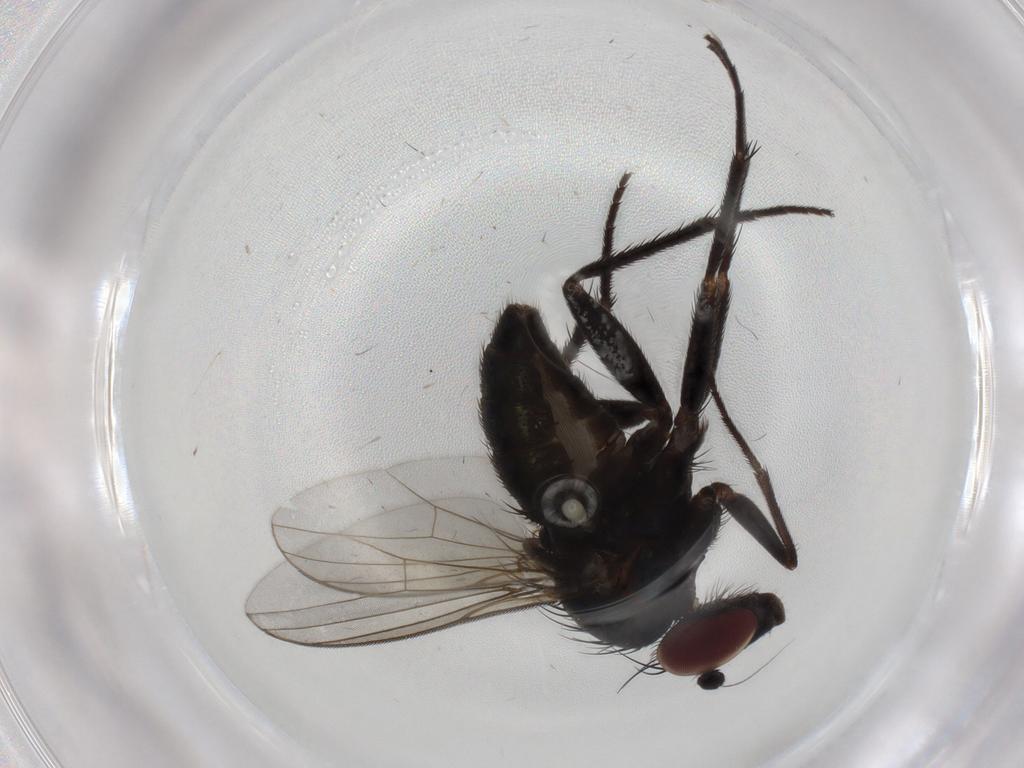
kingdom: Animalia
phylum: Arthropoda
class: Insecta
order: Diptera
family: Dolichopodidae
